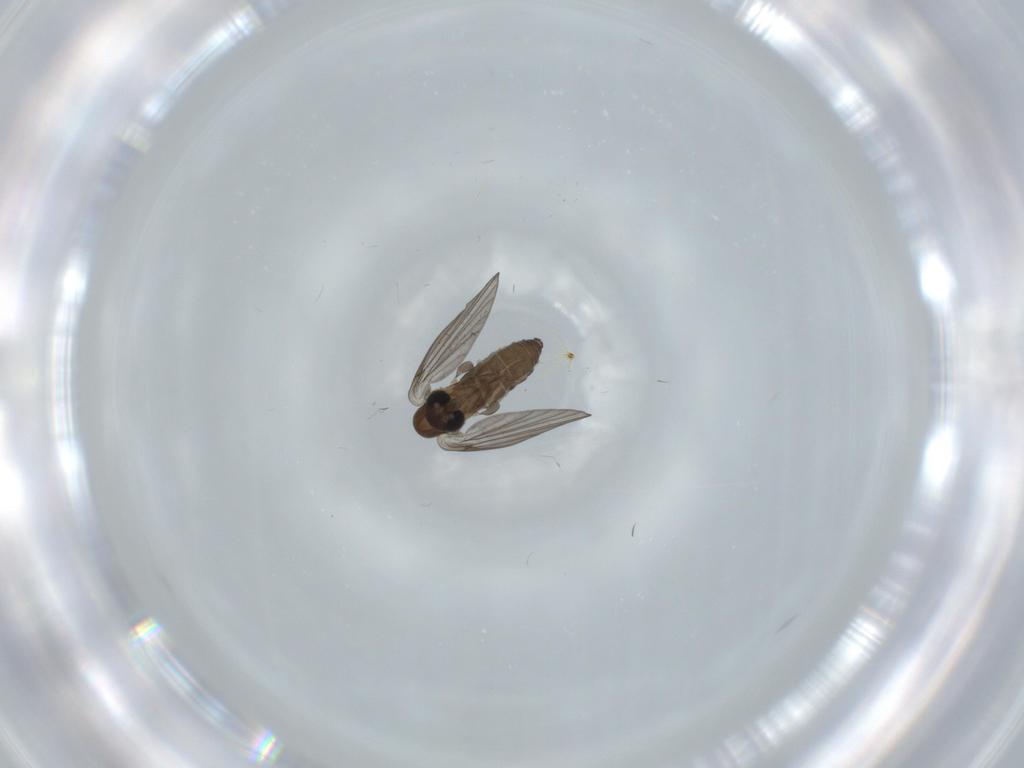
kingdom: Animalia
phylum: Arthropoda
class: Insecta
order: Diptera
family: Psychodidae
